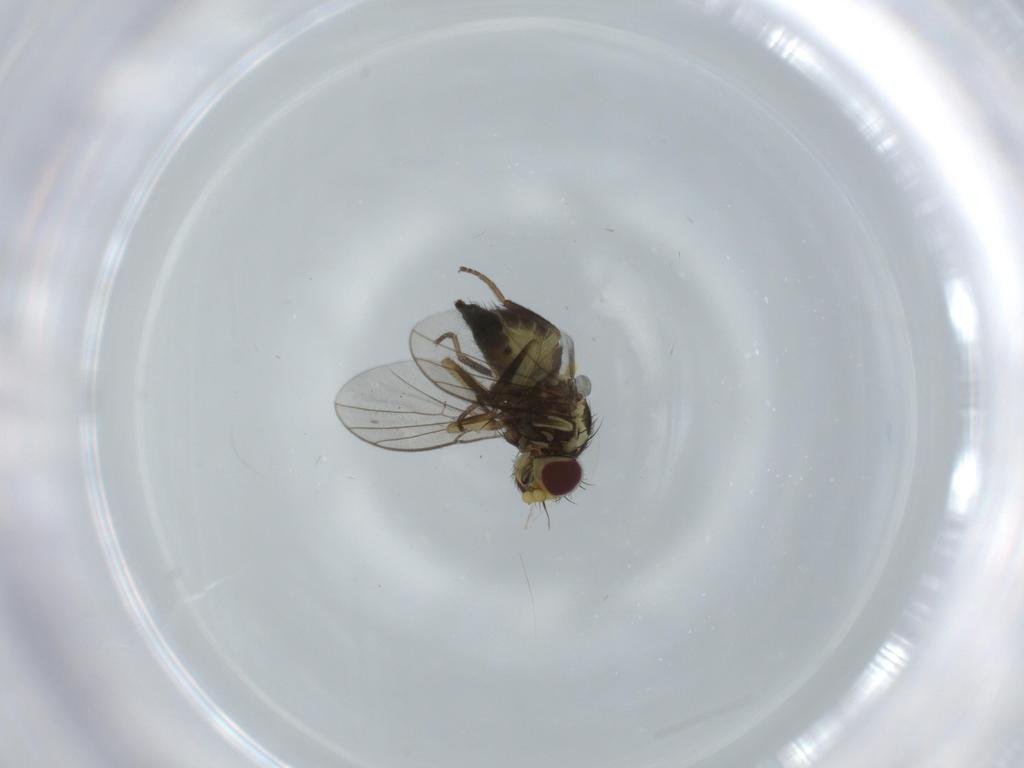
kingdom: Animalia
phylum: Arthropoda
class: Insecta
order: Diptera
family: Agromyzidae
